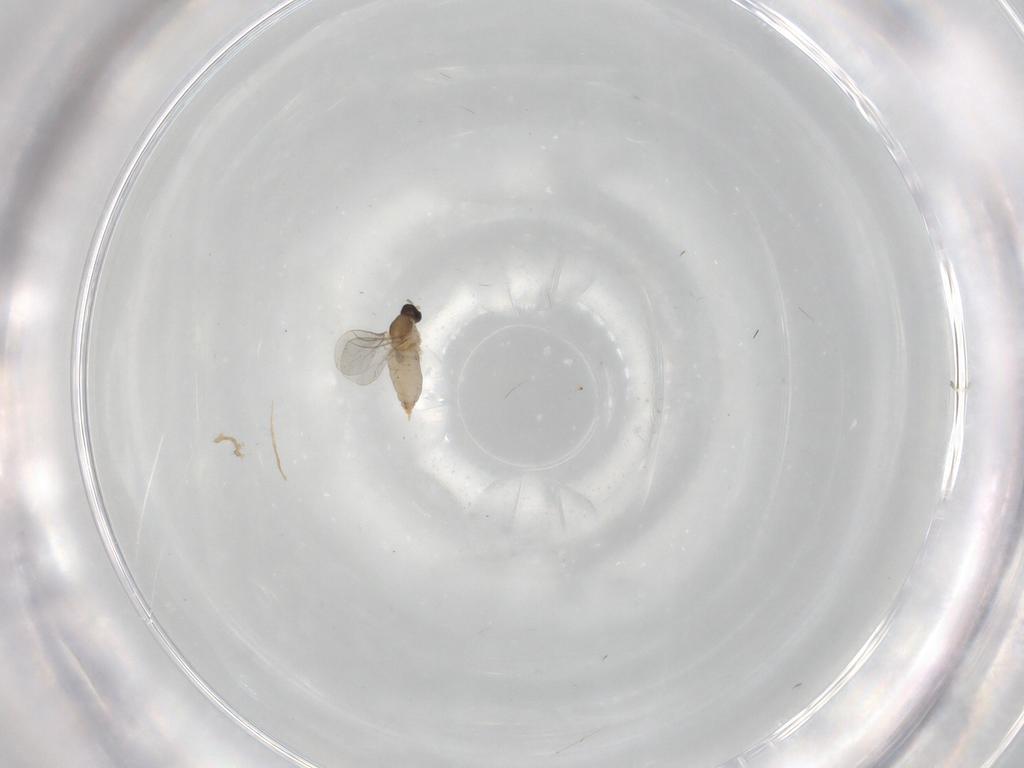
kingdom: Animalia
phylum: Arthropoda
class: Insecta
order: Diptera
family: Cecidomyiidae
